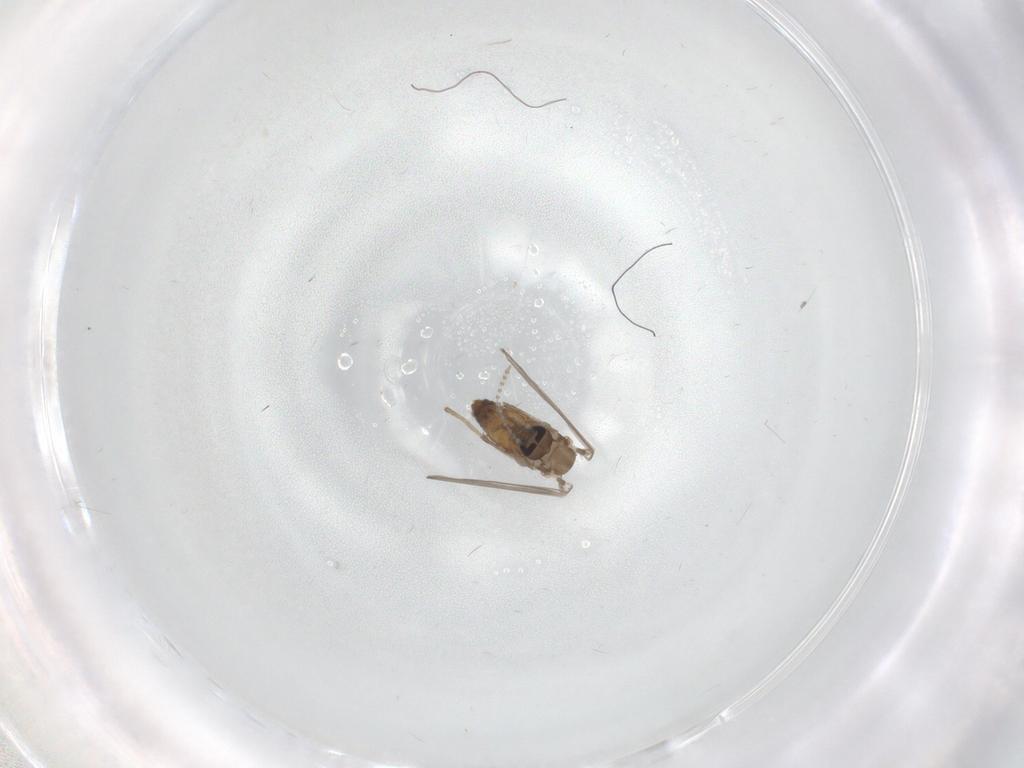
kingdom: Animalia
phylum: Arthropoda
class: Insecta
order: Diptera
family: Psychodidae
